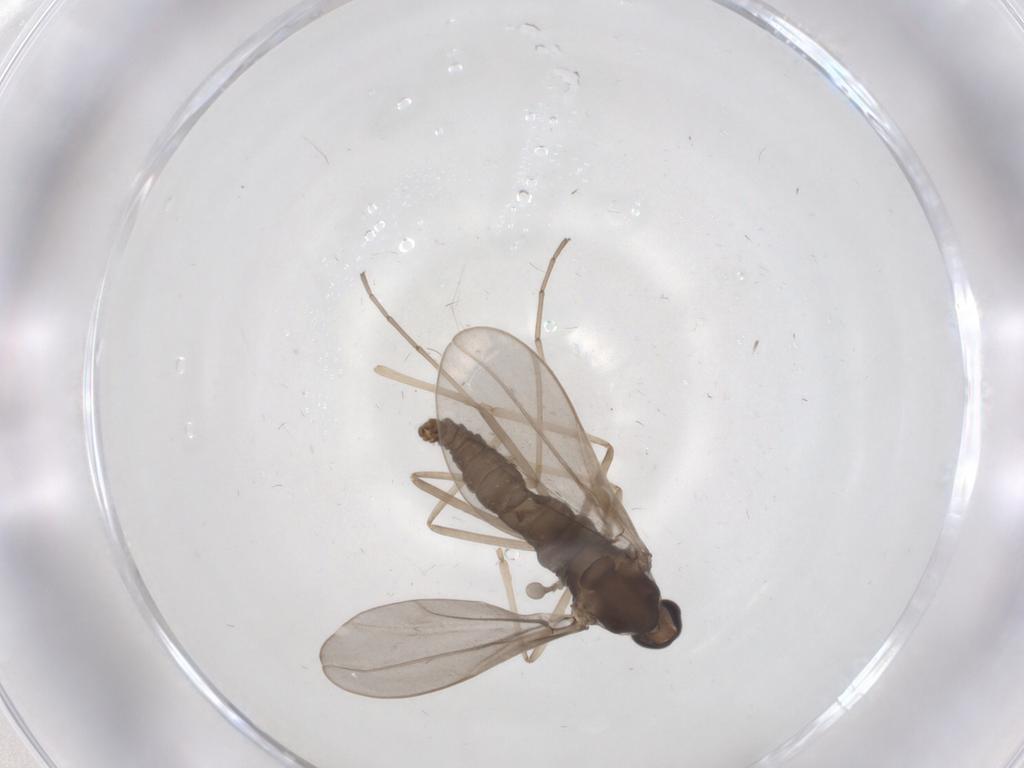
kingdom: Animalia
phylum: Arthropoda
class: Insecta
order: Diptera
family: Cecidomyiidae
